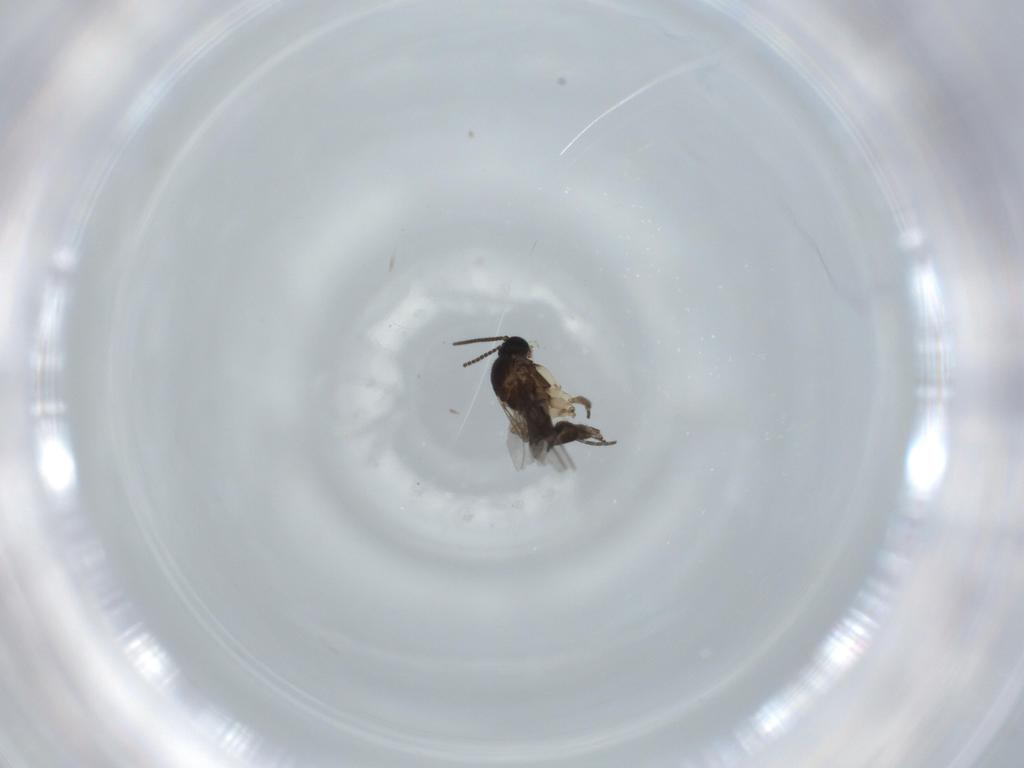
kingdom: Animalia
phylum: Arthropoda
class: Insecta
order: Diptera
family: Sciaridae
